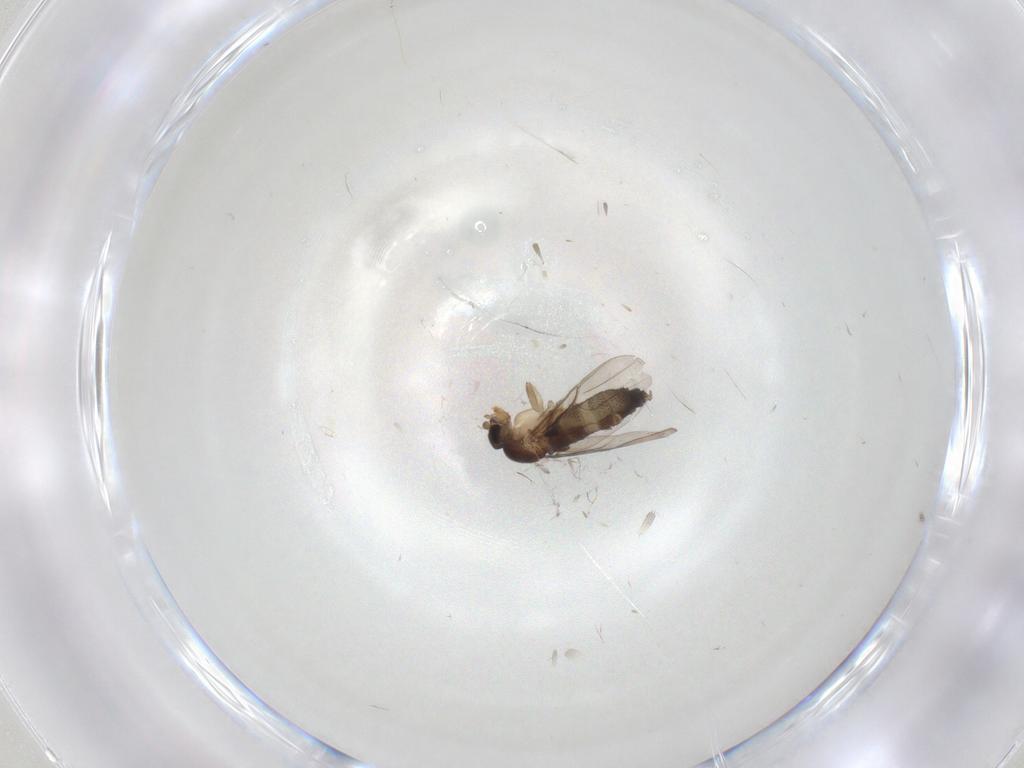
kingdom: Animalia
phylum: Arthropoda
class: Insecta
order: Diptera
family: Phoridae
